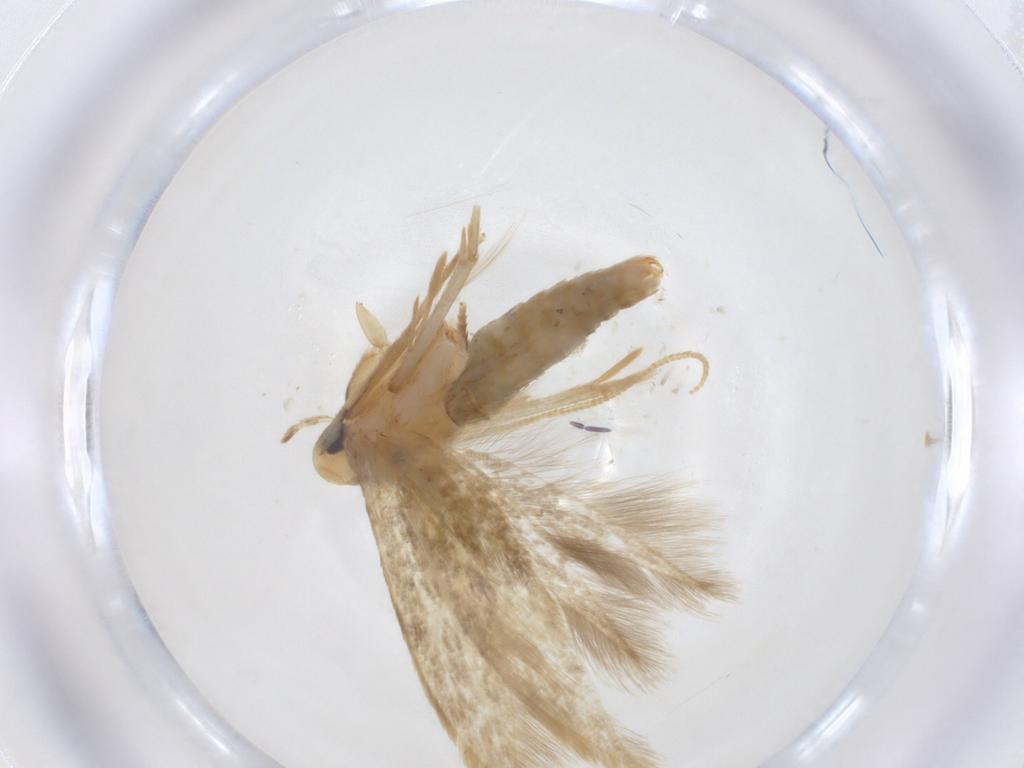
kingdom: Animalia
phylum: Arthropoda
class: Insecta
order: Lepidoptera
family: Tineidae
